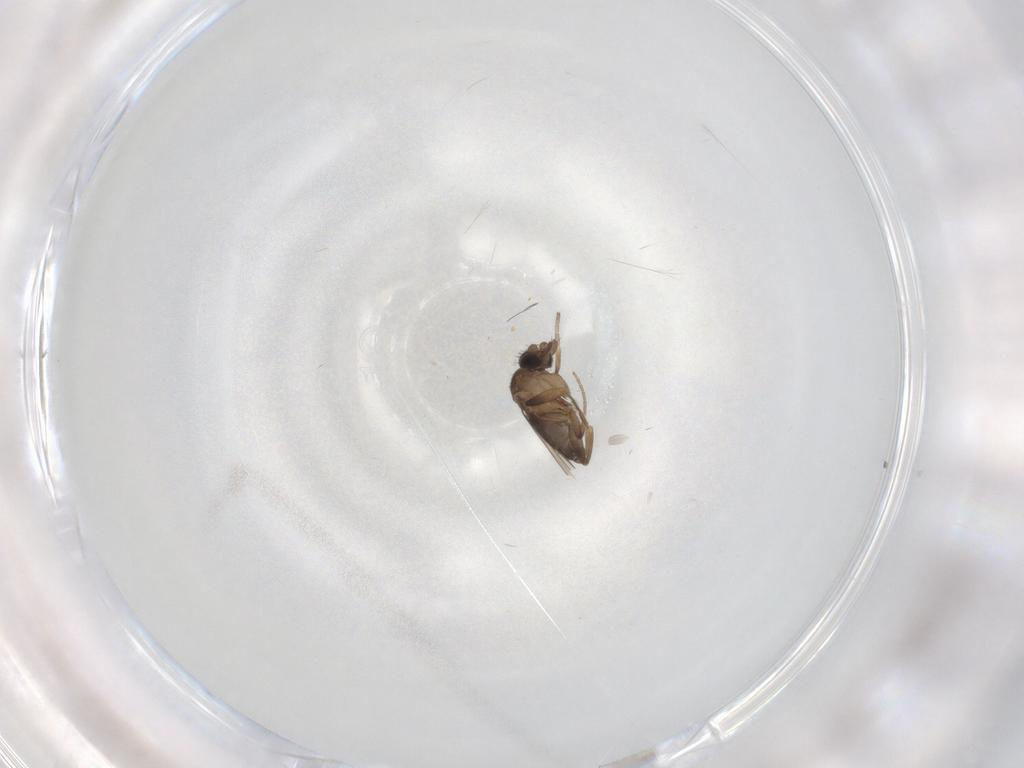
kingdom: Animalia
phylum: Arthropoda
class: Insecta
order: Diptera
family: Phoridae
